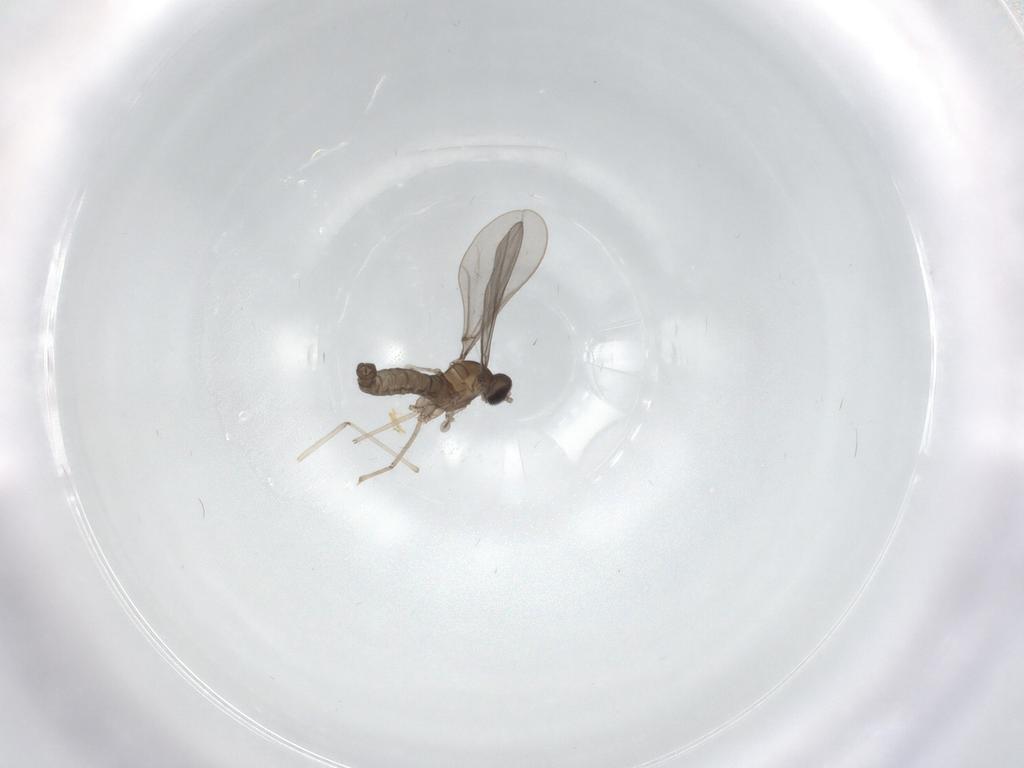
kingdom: Animalia
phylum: Arthropoda
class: Insecta
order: Diptera
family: Cecidomyiidae
